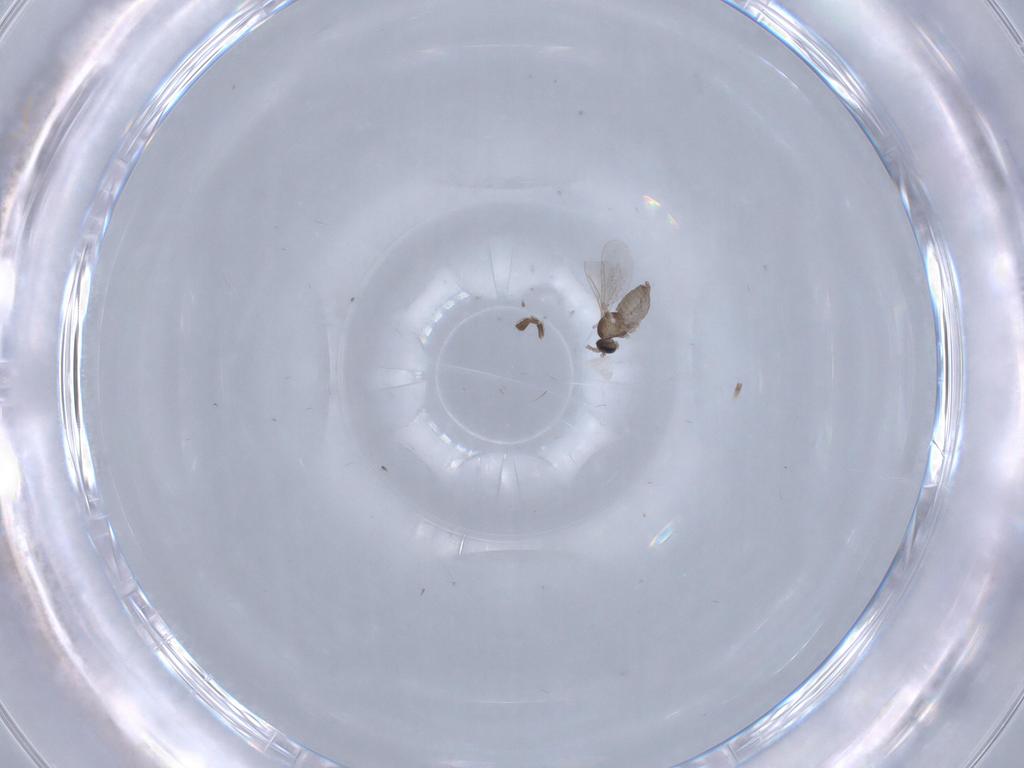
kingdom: Animalia
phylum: Arthropoda
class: Insecta
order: Diptera
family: Cecidomyiidae
